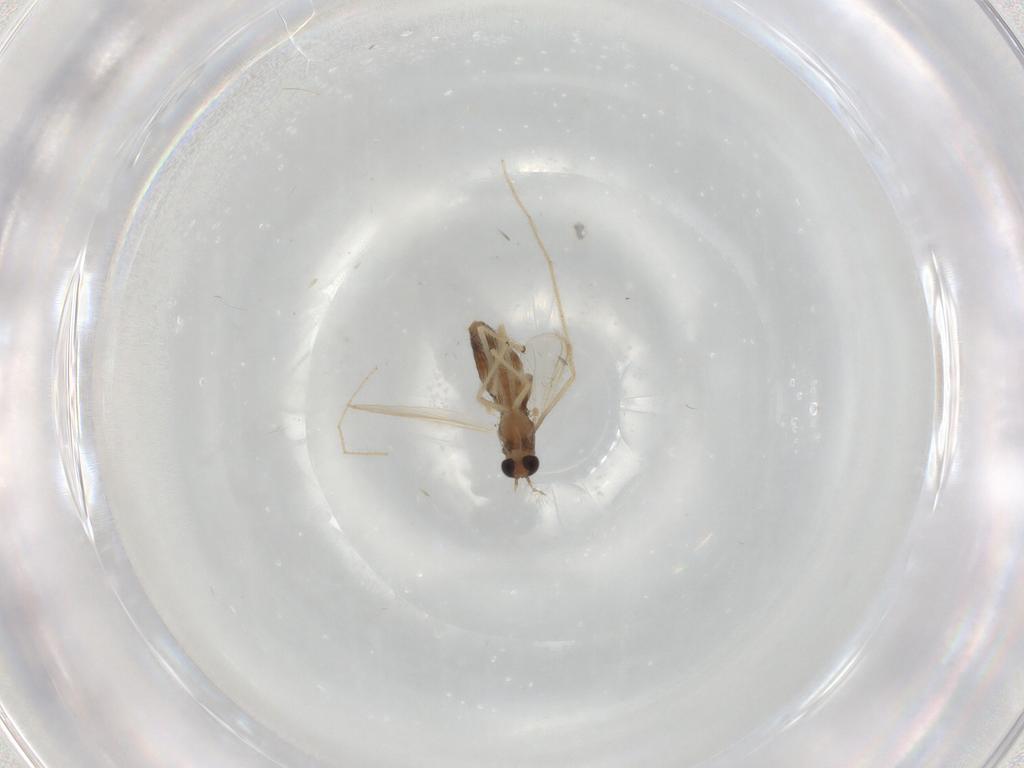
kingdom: Animalia
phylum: Arthropoda
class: Insecta
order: Diptera
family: Chironomidae
